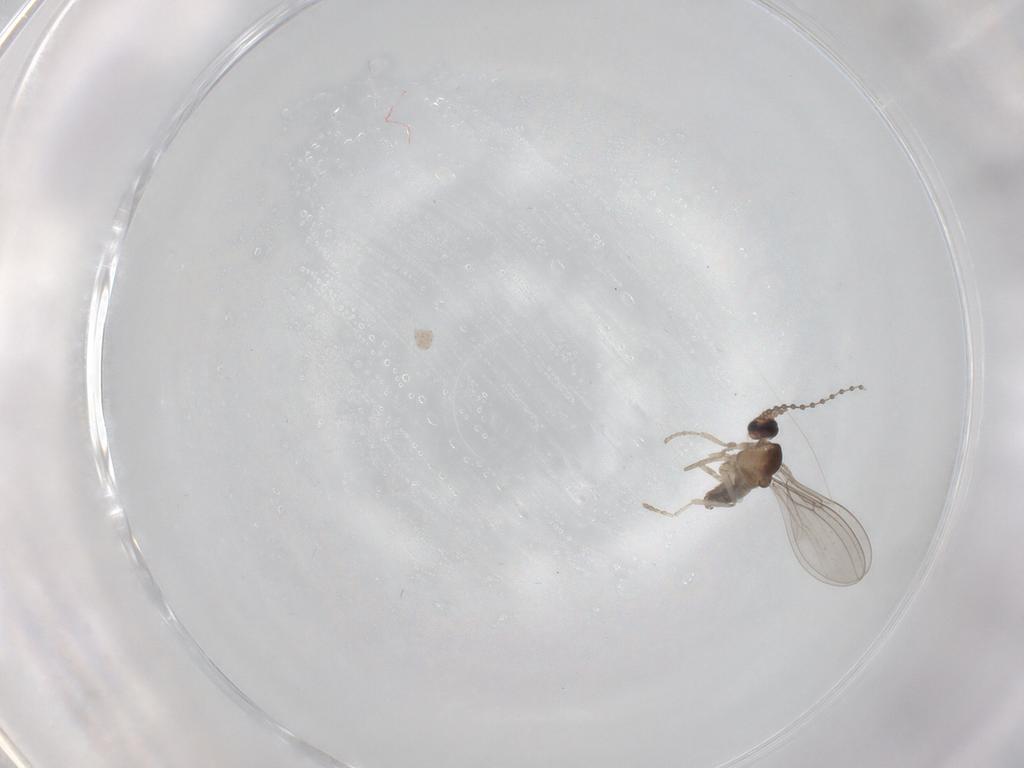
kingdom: Animalia
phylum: Arthropoda
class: Insecta
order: Diptera
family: Cecidomyiidae
